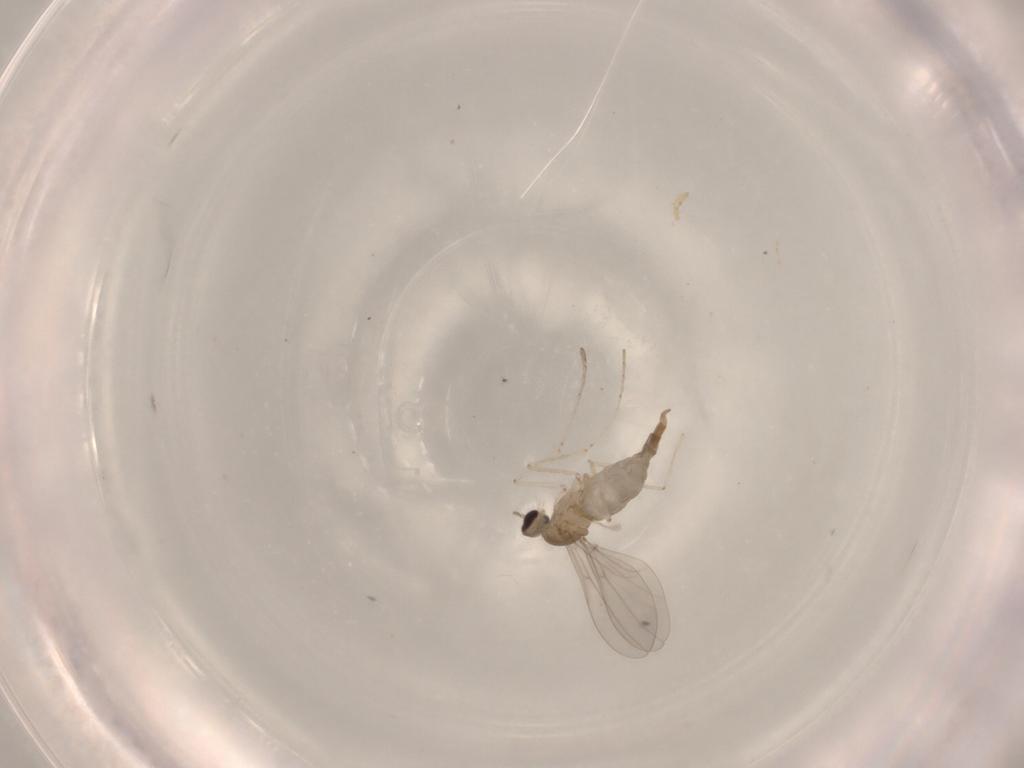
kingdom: Animalia
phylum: Arthropoda
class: Insecta
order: Diptera
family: Cecidomyiidae
